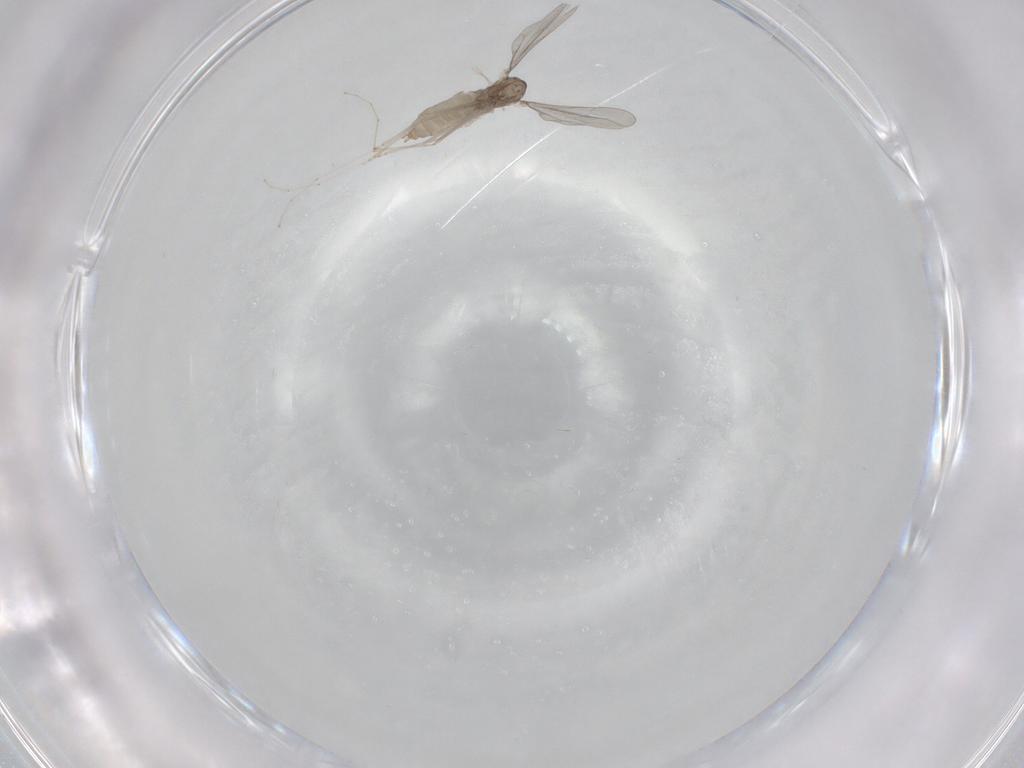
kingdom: Animalia
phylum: Arthropoda
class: Insecta
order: Diptera
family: Cecidomyiidae
